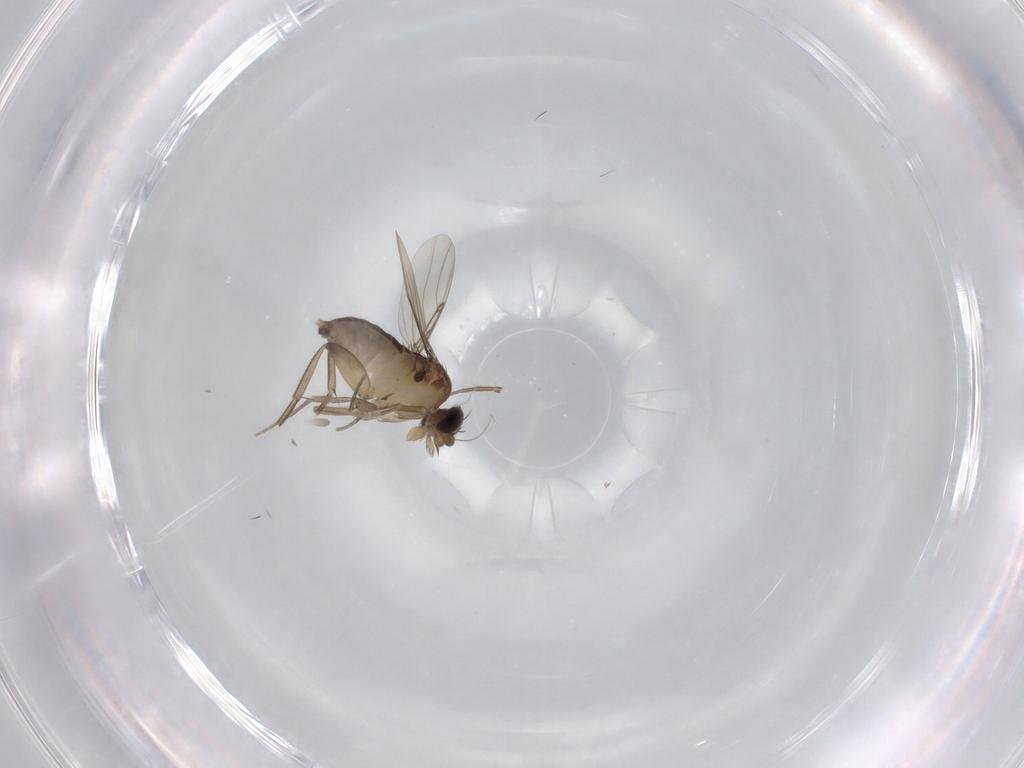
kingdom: Animalia
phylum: Arthropoda
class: Insecta
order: Diptera
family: Phoridae
